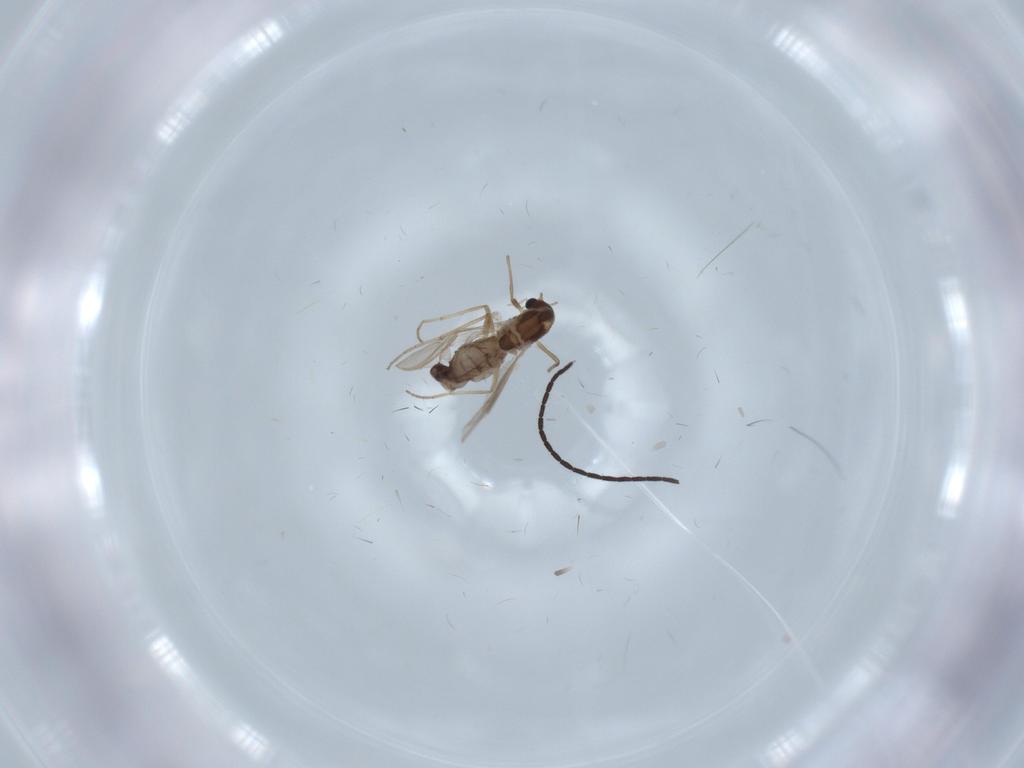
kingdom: Animalia
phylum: Arthropoda
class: Insecta
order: Diptera
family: Chironomidae
